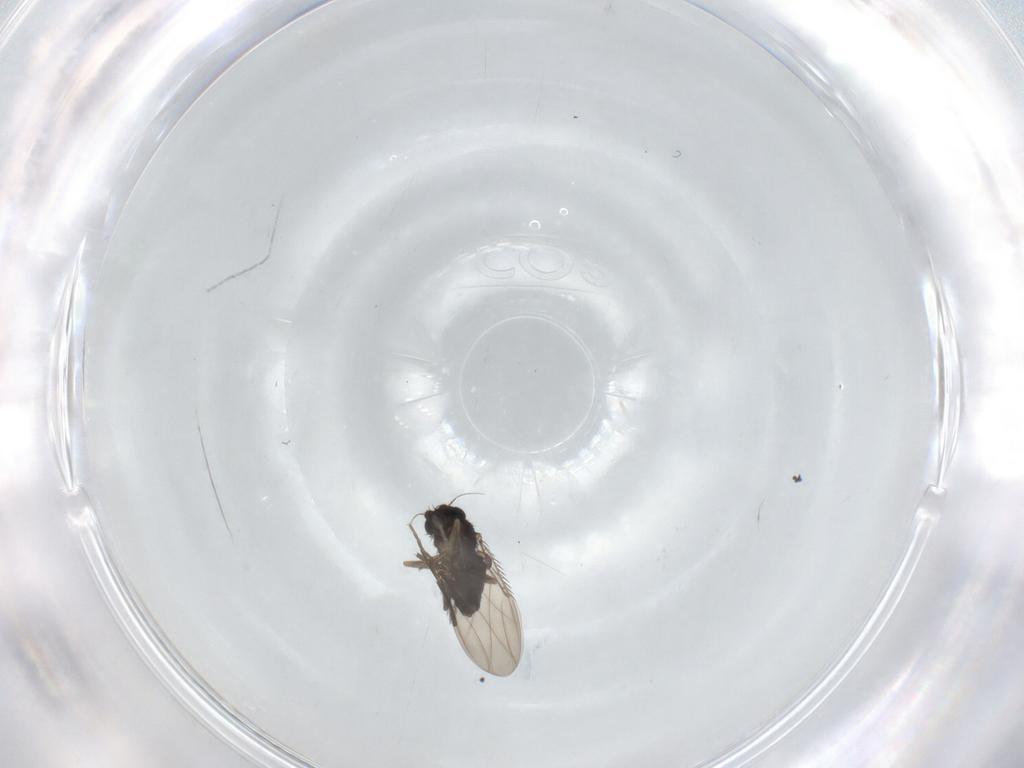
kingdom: Animalia
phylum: Arthropoda
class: Insecta
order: Diptera
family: Phoridae
